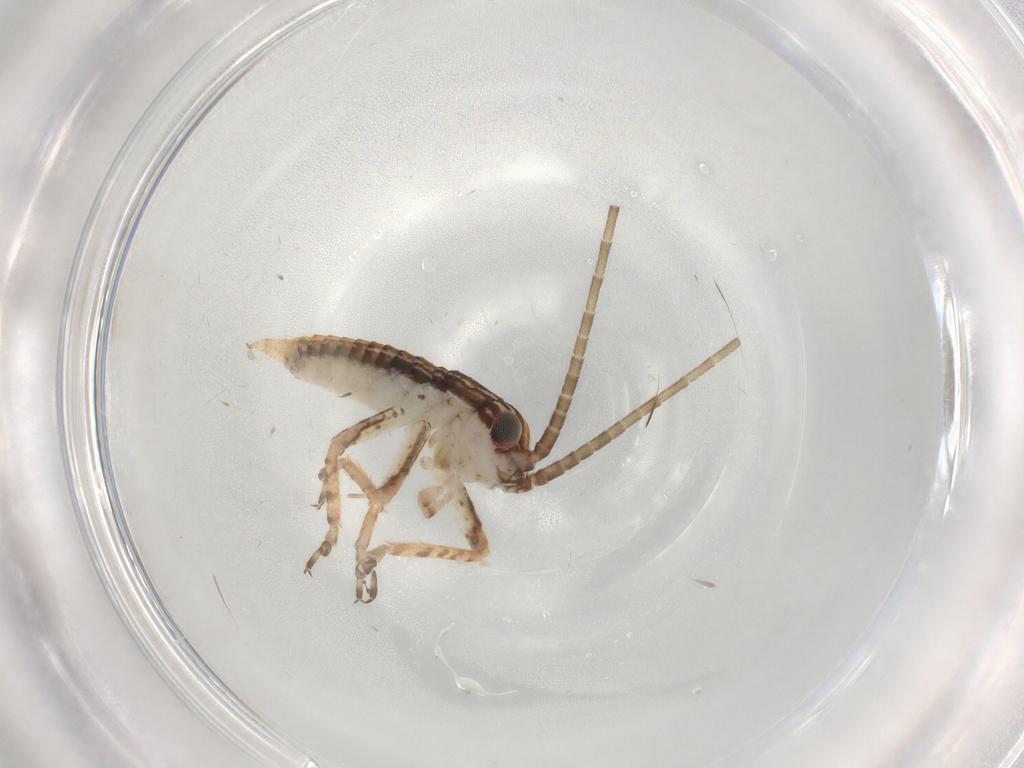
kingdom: Animalia
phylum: Arthropoda
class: Insecta
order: Orthoptera
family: Gryllidae
